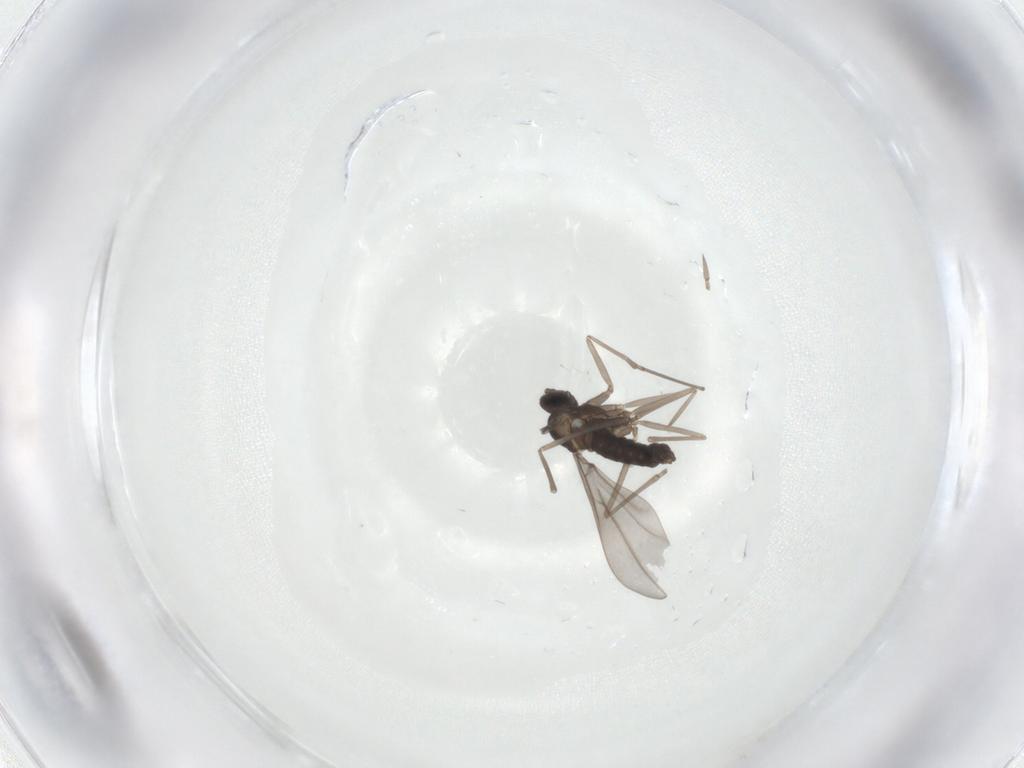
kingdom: Animalia
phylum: Arthropoda
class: Insecta
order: Diptera
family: Cecidomyiidae
